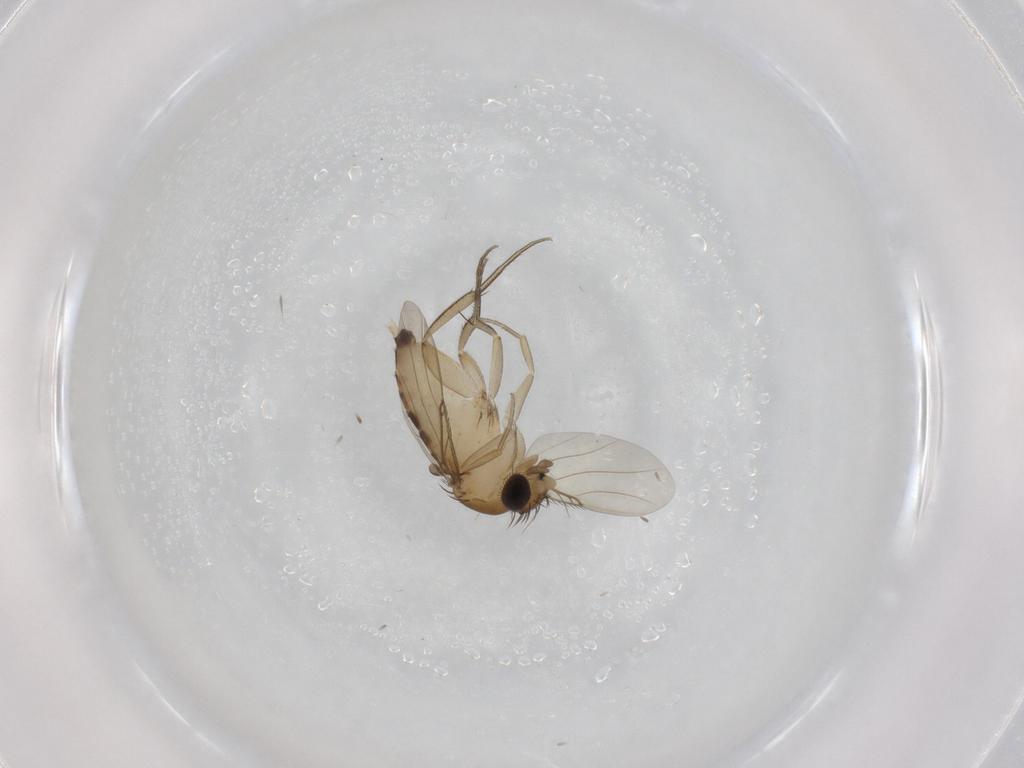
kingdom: Animalia
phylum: Arthropoda
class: Insecta
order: Diptera
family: Phoridae
